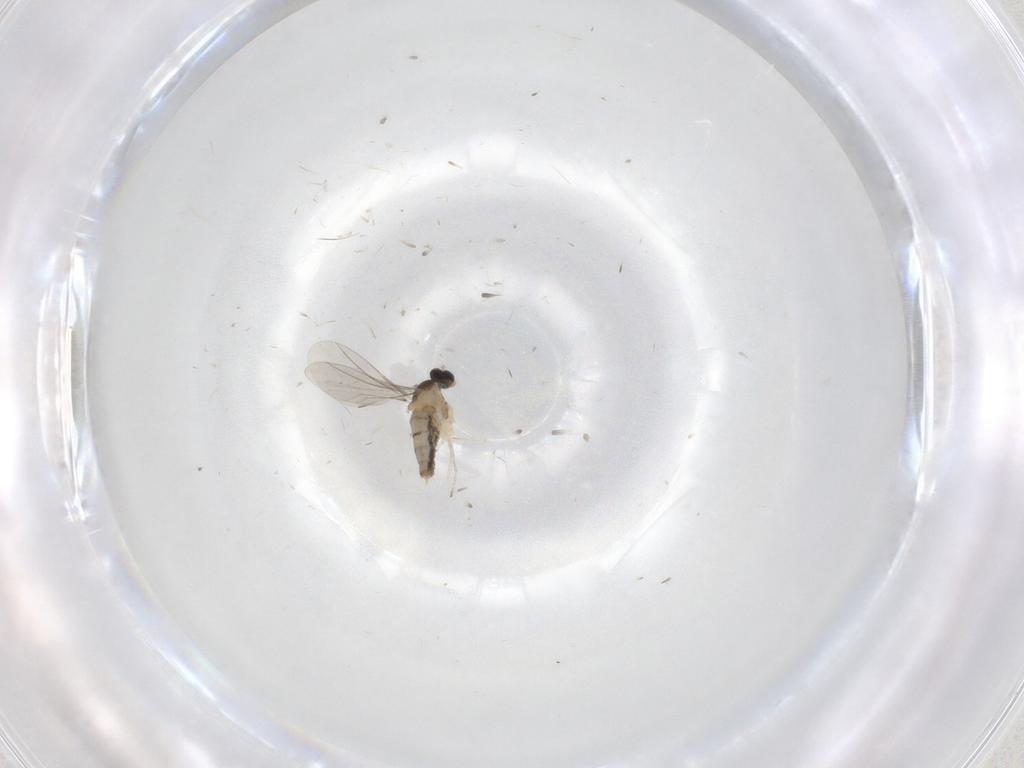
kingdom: Animalia
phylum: Arthropoda
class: Insecta
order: Diptera
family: Cecidomyiidae
